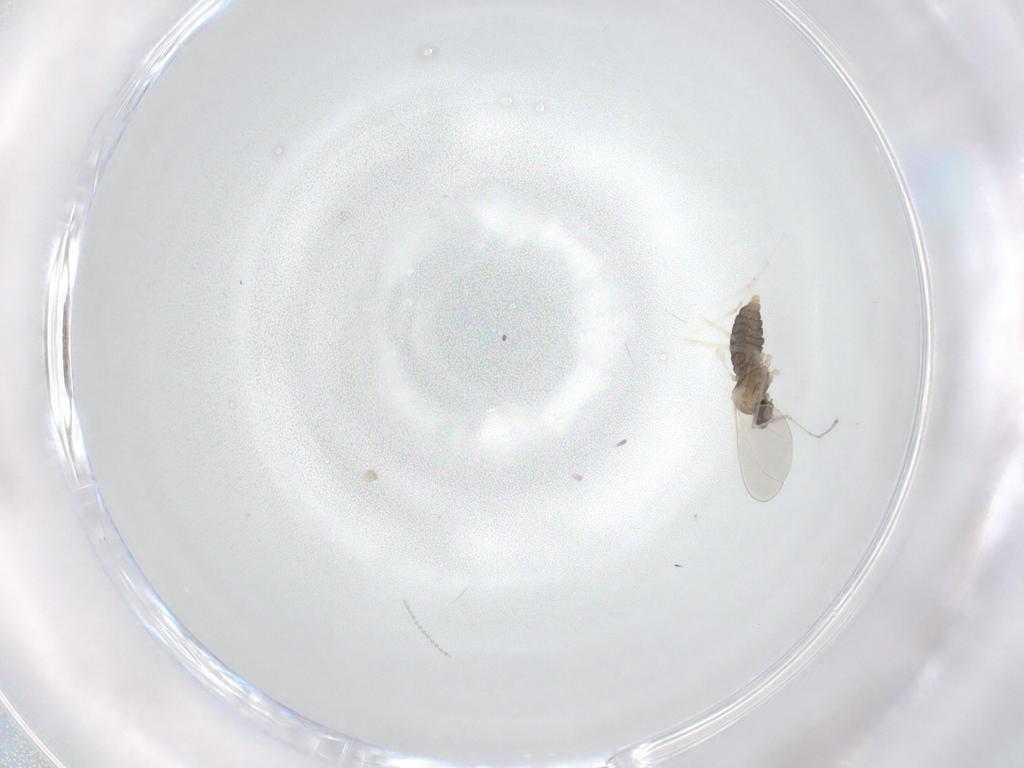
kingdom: Animalia
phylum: Arthropoda
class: Insecta
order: Diptera
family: Cecidomyiidae
